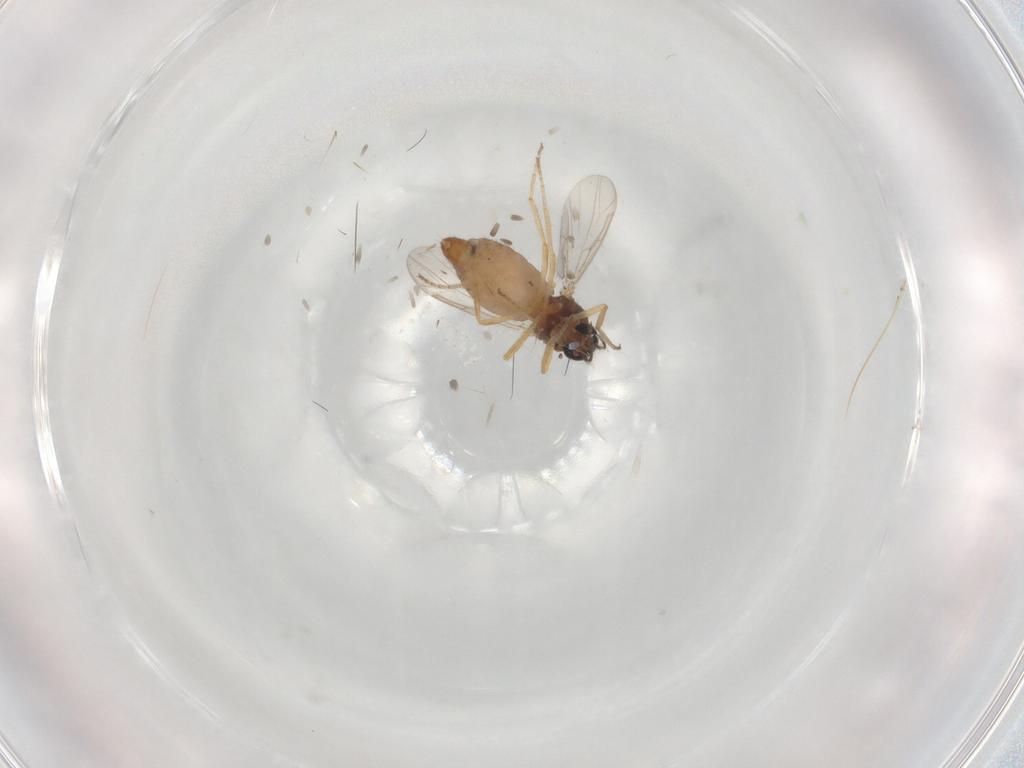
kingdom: Animalia
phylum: Arthropoda
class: Insecta
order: Diptera
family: Ceratopogonidae
